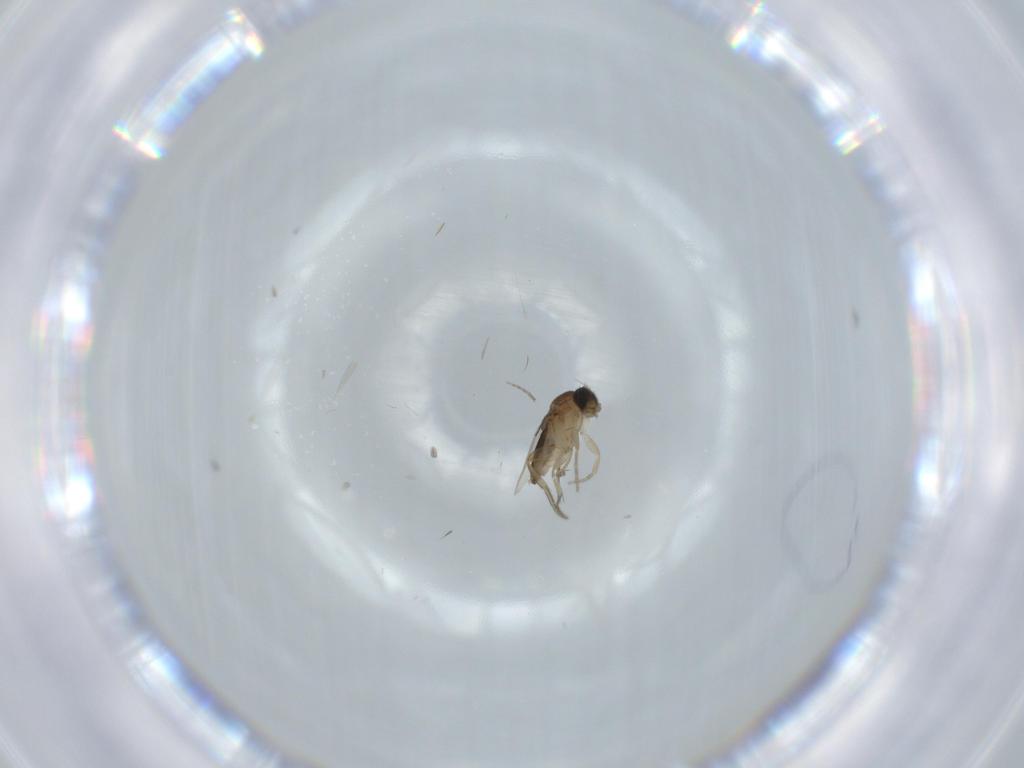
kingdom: Animalia
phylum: Arthropoda
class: Insecta
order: Diptera
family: Phoridae
